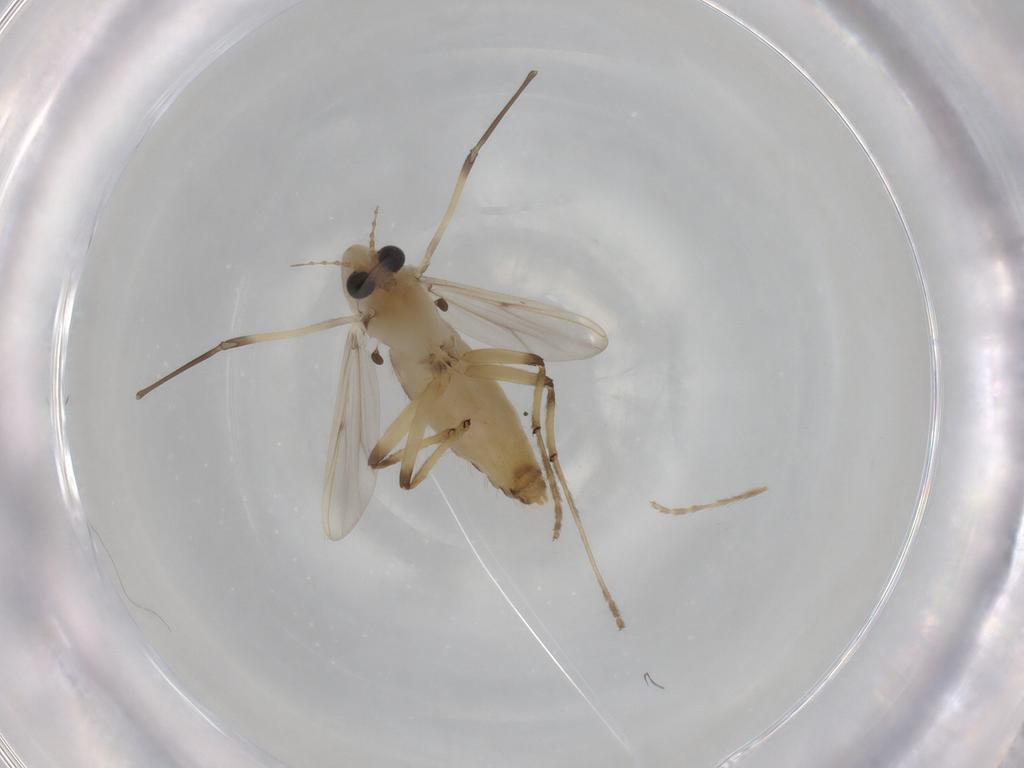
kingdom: Animalia
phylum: Arthropoda
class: Insecta
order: Diptera
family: Chironomidae
